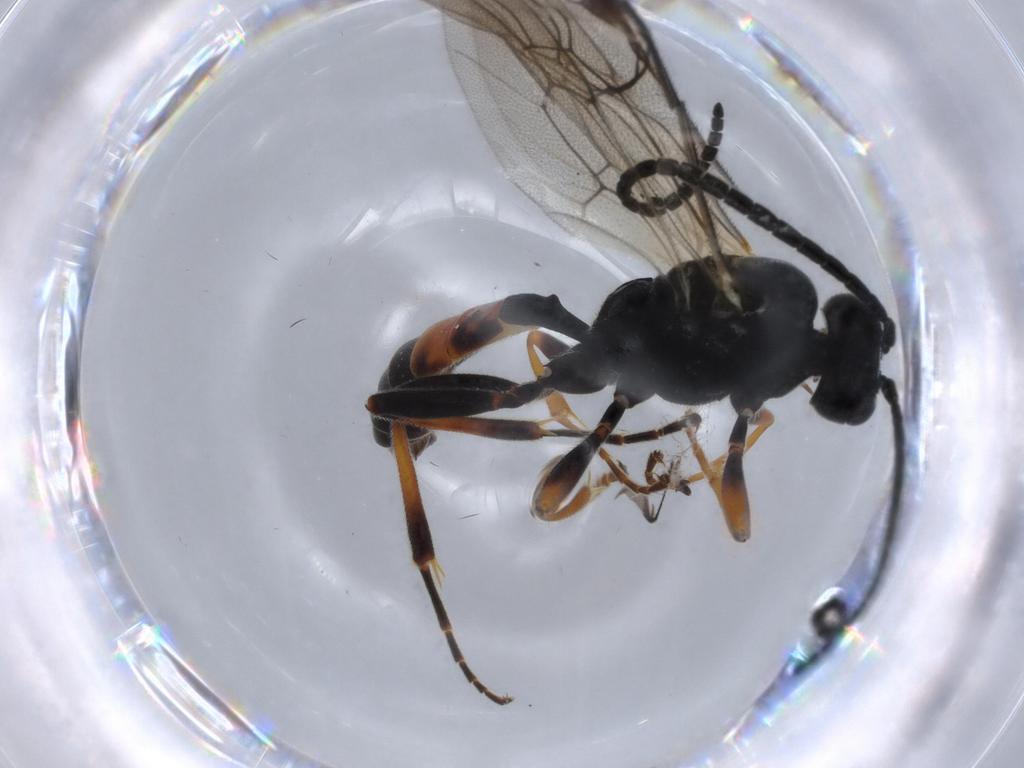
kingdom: Animalia
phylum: Arthropoda
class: Insecta
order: Hymenoptera
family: Ichneumonidae
